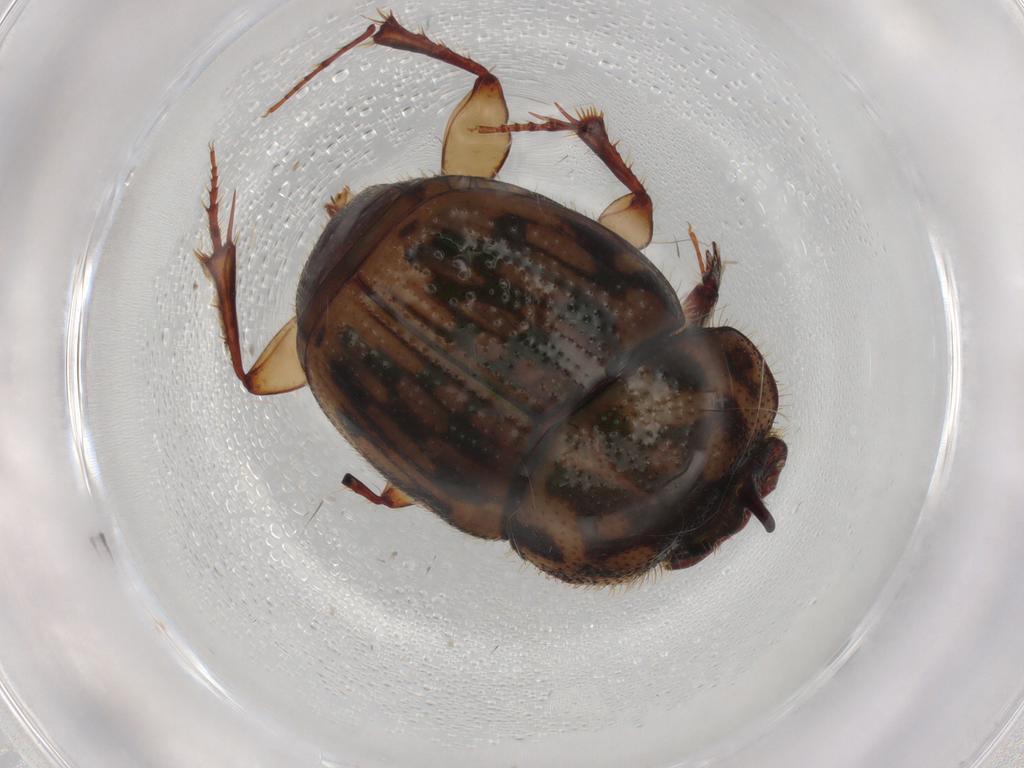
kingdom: Animalia
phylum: Arthropoda
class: Insecta
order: Coleoptera
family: Scarabaeidae
